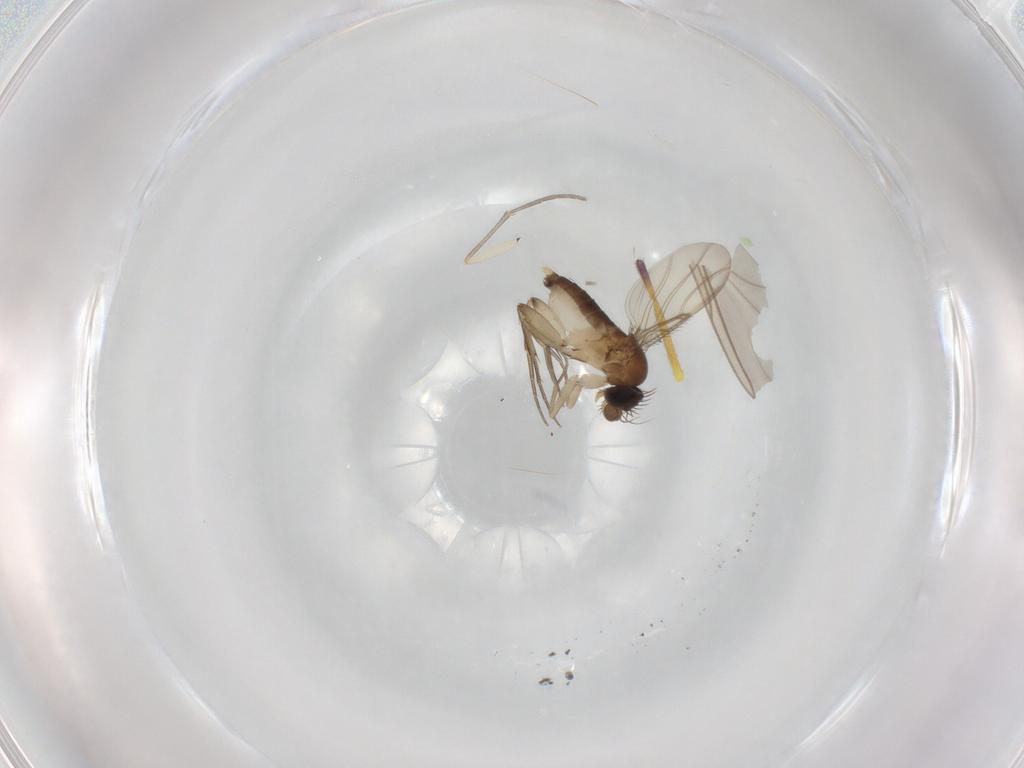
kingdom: Animalia
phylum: Arthropoda
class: Insecta
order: Diptera
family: Phoridae
